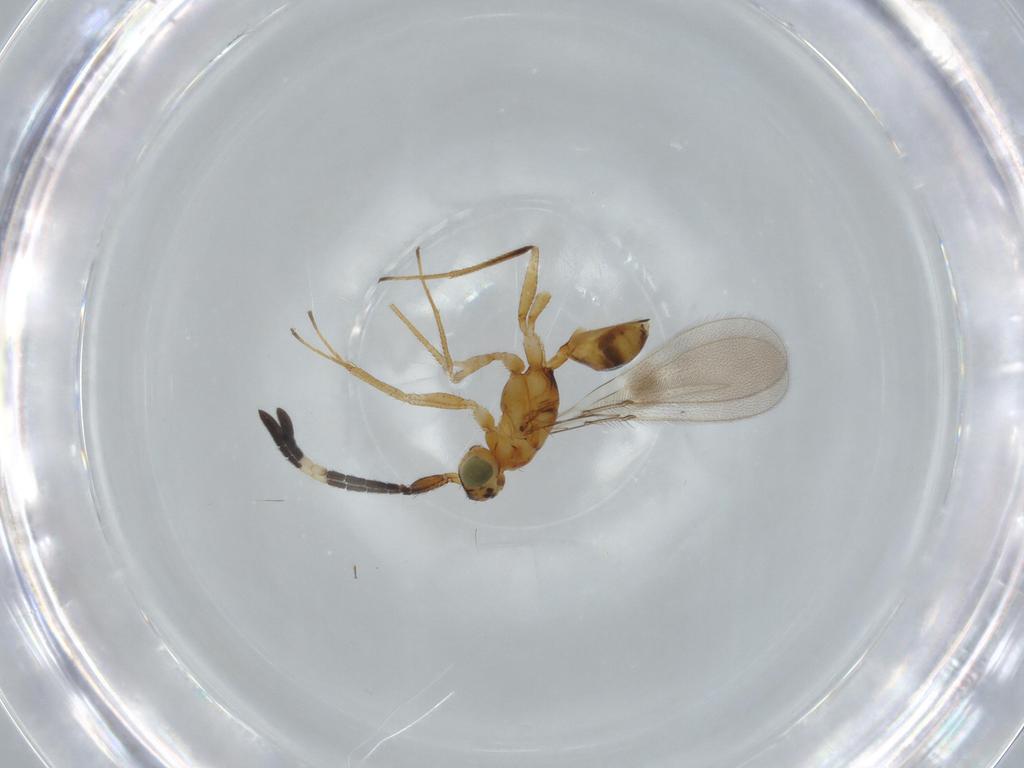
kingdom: Animalia
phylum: Arthropoda
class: Insecta
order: Hymenoptera
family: Mymaridae
